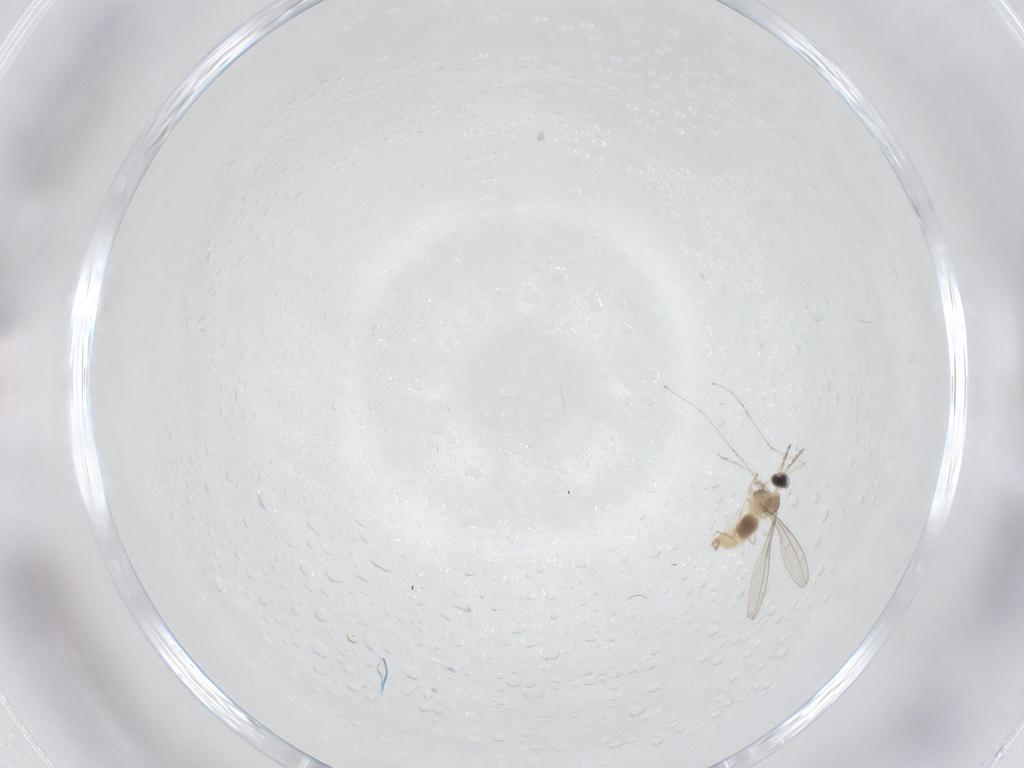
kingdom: Animalia
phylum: Arthropoda
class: Insecta
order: Diptera
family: Cecidomyiidae
